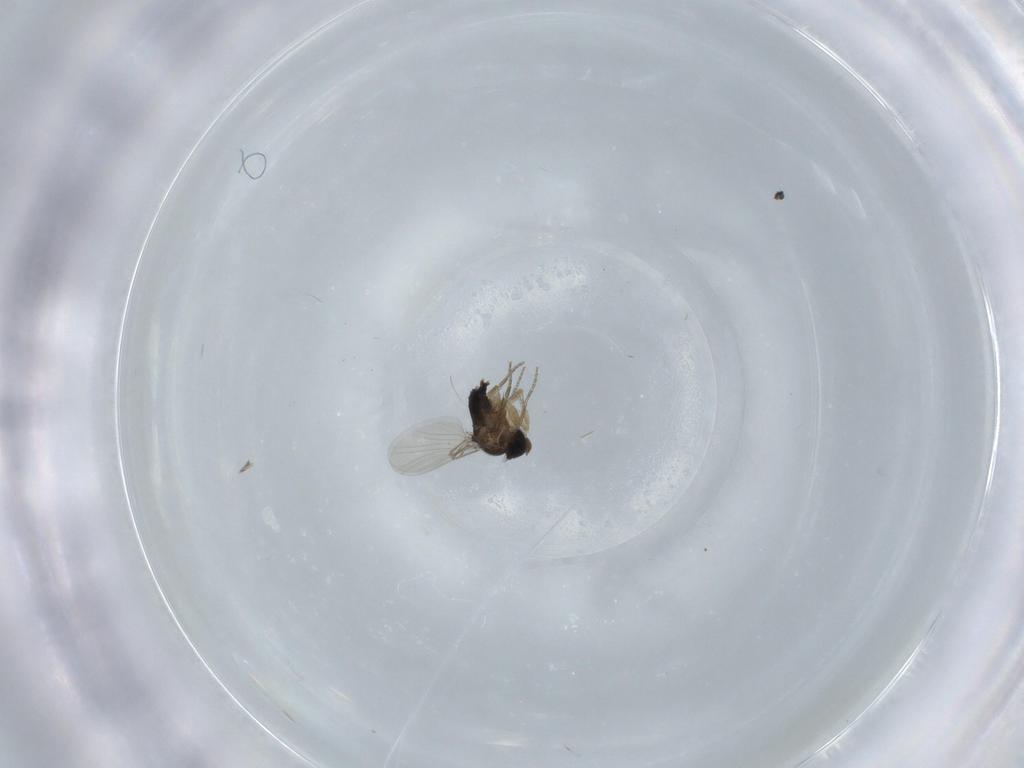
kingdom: Animalia
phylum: Arthropoda
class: Insecta
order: Diptera
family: Phoridae
